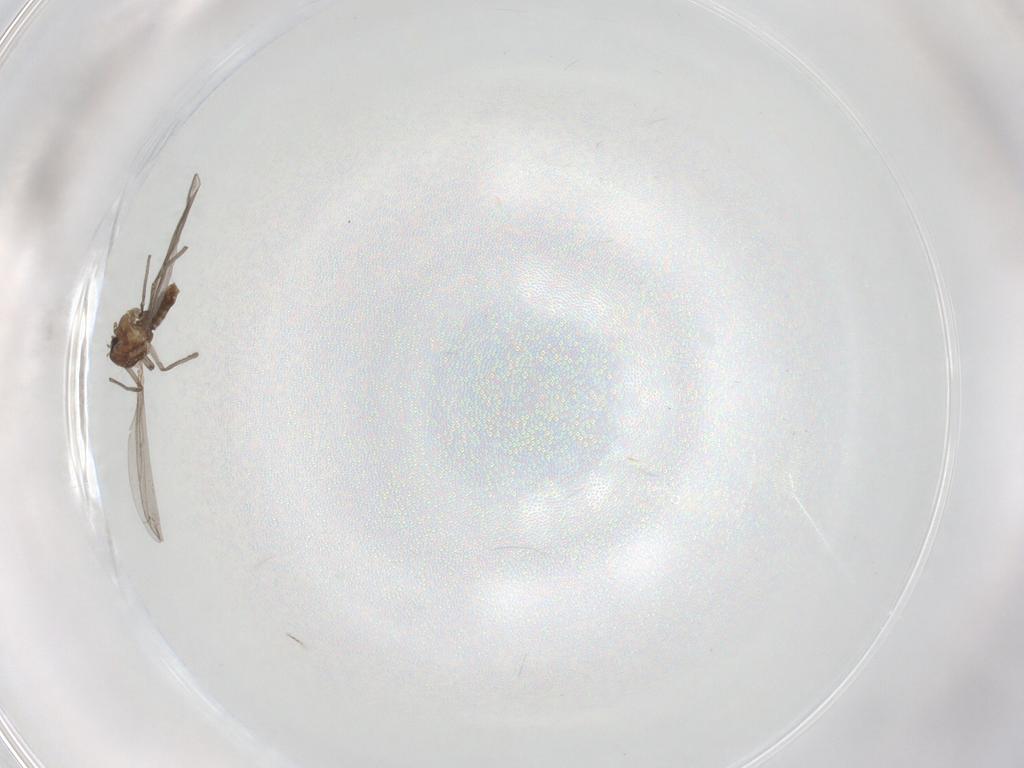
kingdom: Animalia
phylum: Arthropoda
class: Insecta
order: Diptera
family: Chironomidae
